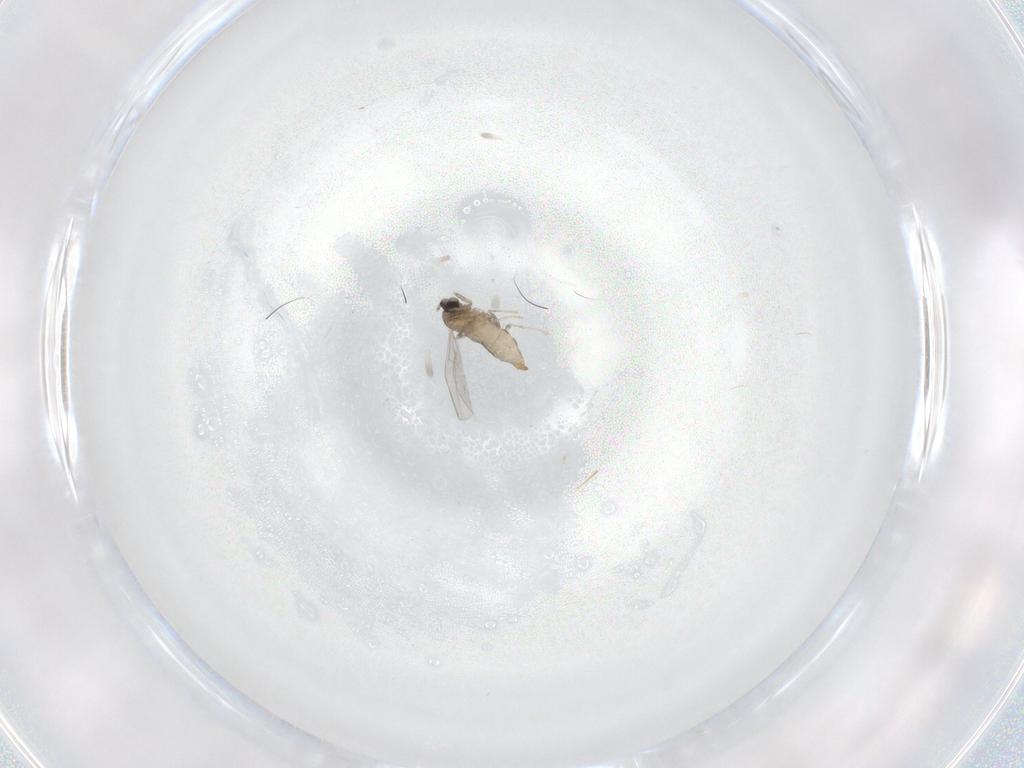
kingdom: Animalia
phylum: Arthropoda
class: Insecta
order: Diptera
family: Cecidomyiidae
